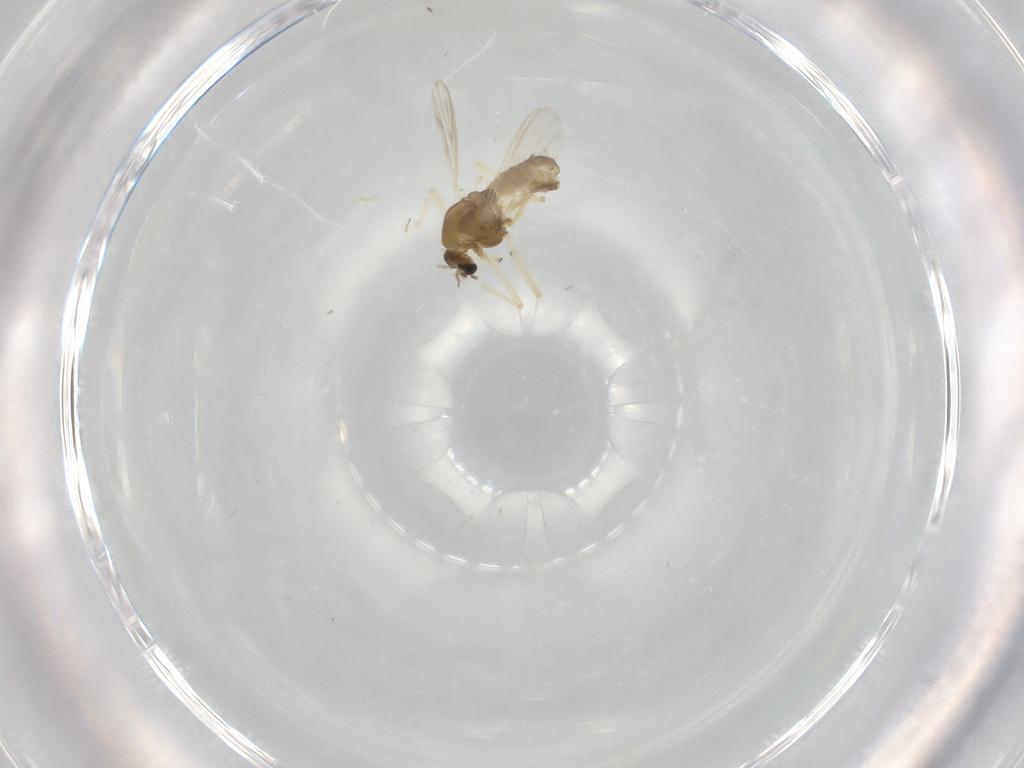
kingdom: Animalia
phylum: Arthropoda
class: Insecta
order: Diptera
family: Chironomidae
